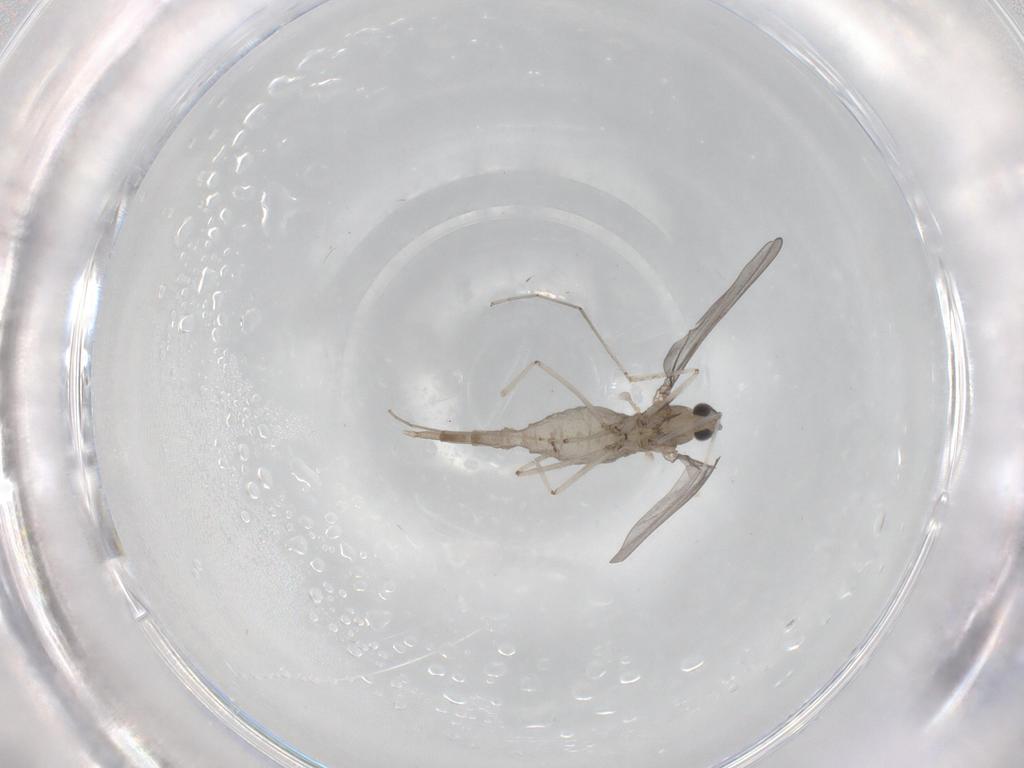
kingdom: Animalia
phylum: Arthropoda
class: Insecta
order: Diptera
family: Cecidomyiidae
